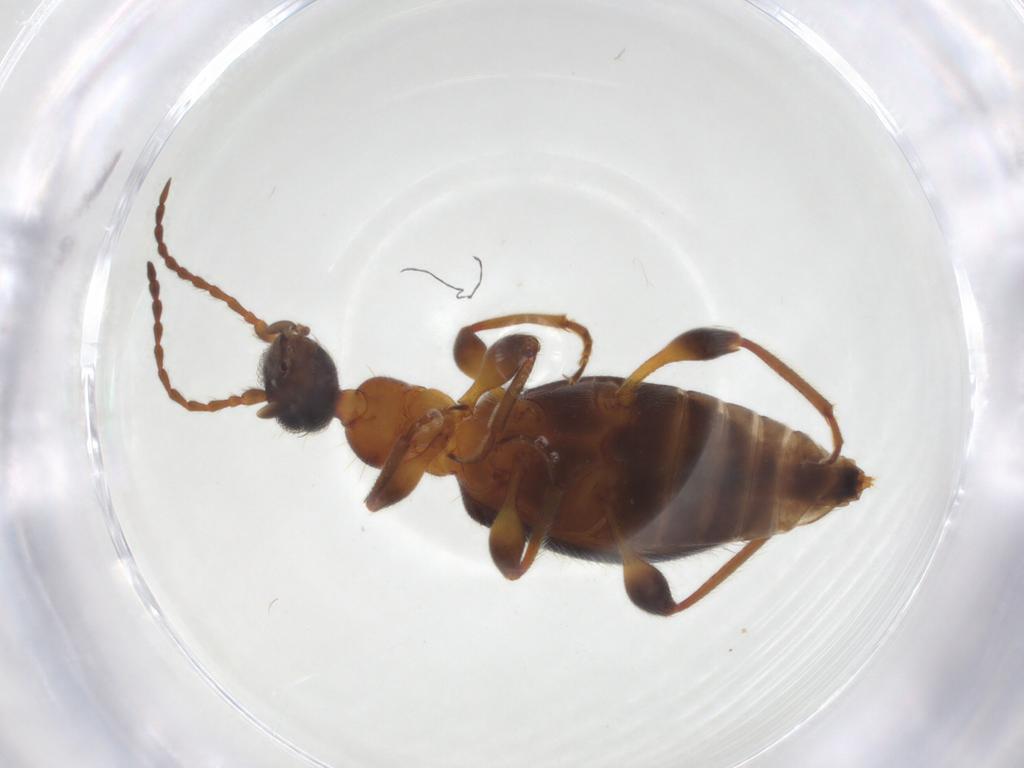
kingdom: Animalia
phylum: Arthropoda
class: Insecta
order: Coleoptera
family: Anthicidae
